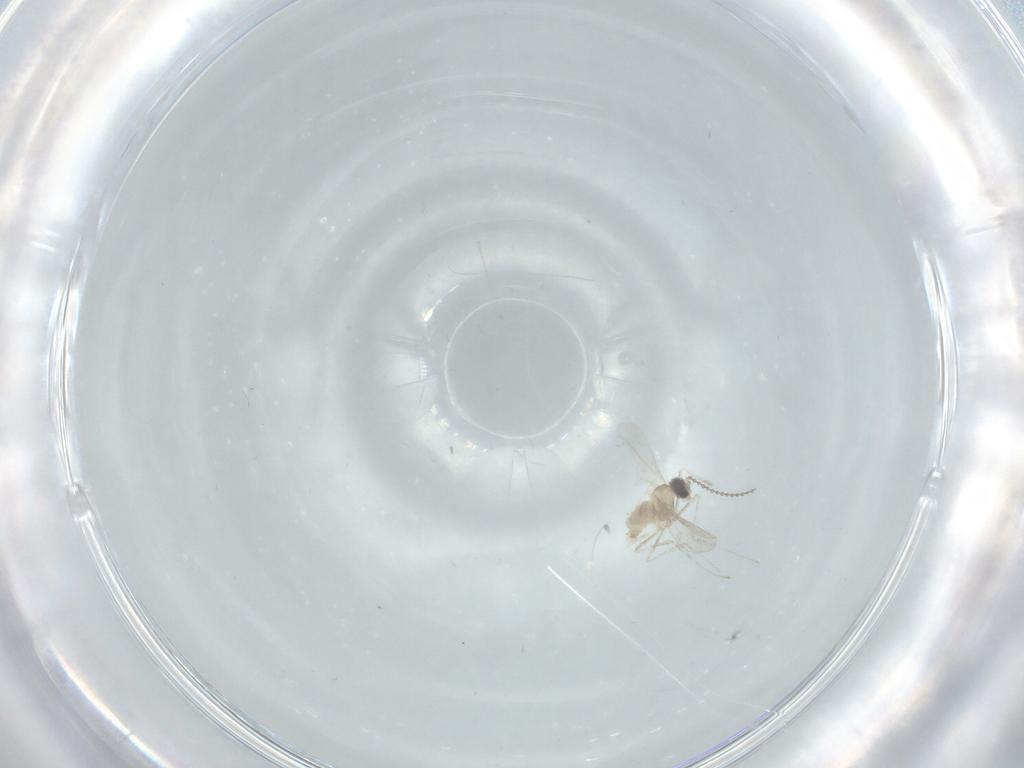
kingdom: Animalia
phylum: Arthropoda
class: Insecta
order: Diptera
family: Cecidomyiidae
